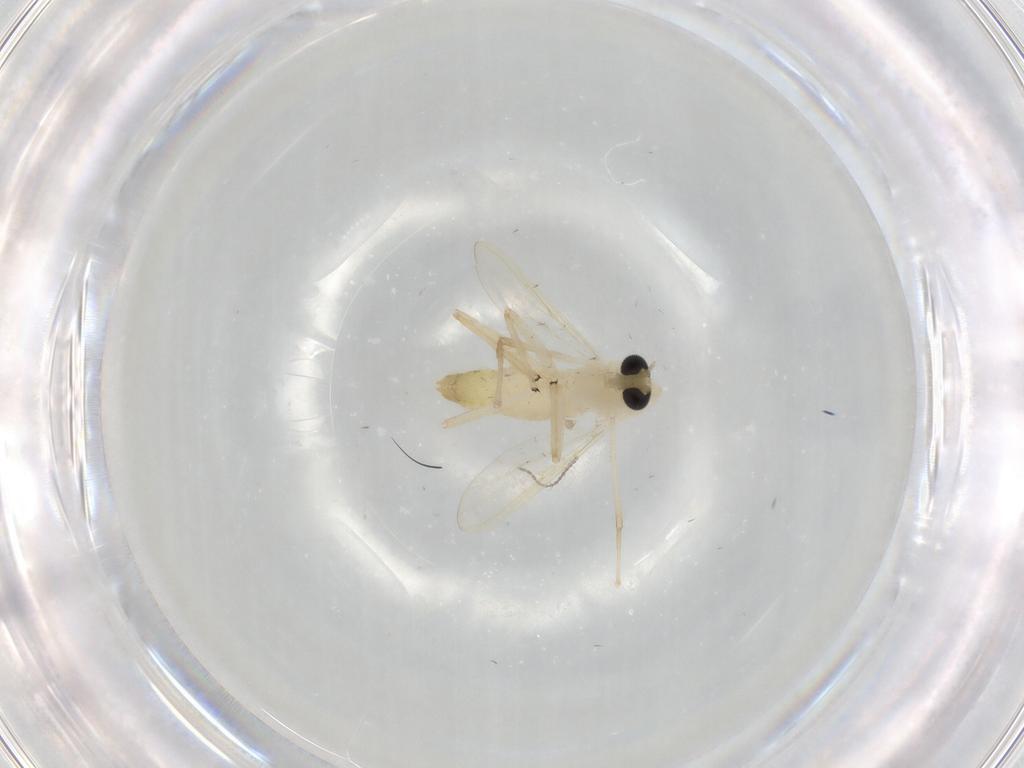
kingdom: Animalia
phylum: Arthropoda
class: Insecta
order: Diptera
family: Chironomidae
